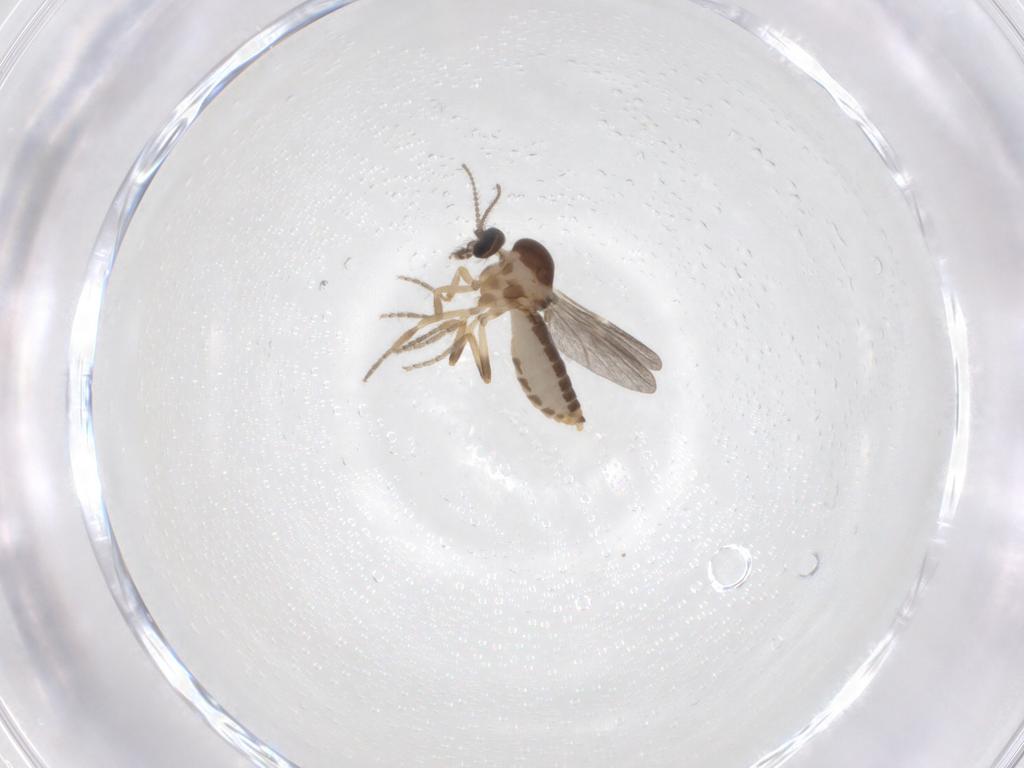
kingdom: Animalia
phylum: Arthropoda
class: Insecta
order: Diptera
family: Ceratopogonidae
